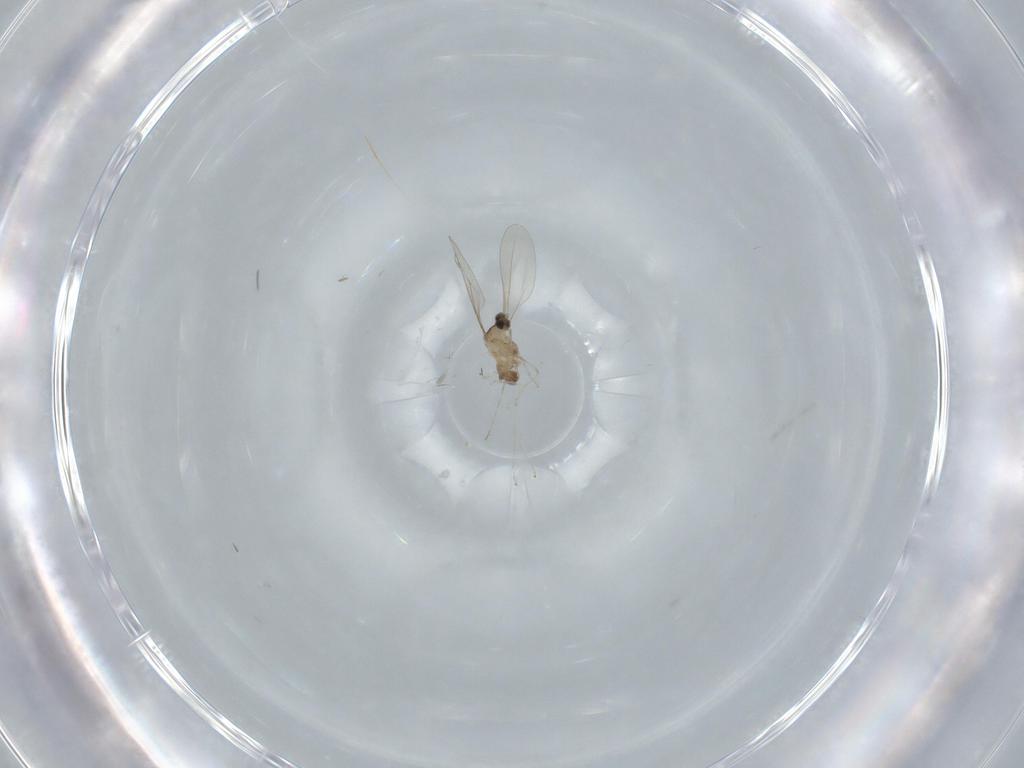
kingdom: Animalia
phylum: Arthropoda
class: Insecta
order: Diptera
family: Cecidomyiidae
